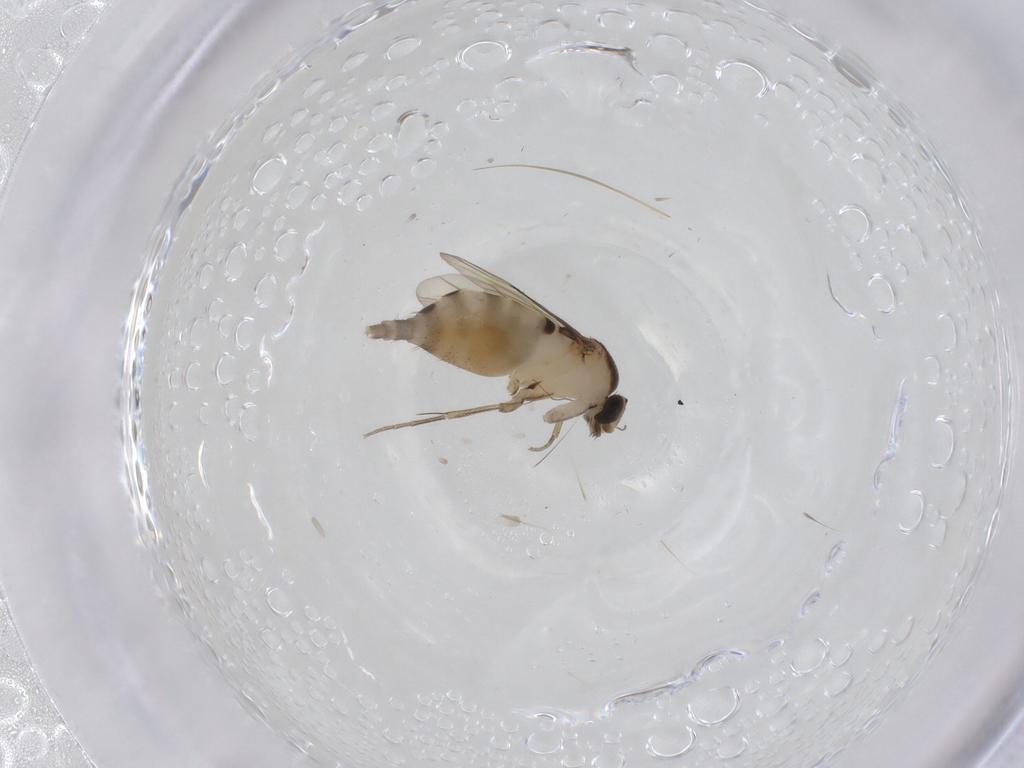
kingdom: Animalia
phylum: Arthropoda
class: Insecta
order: Diptera
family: Phoridae
